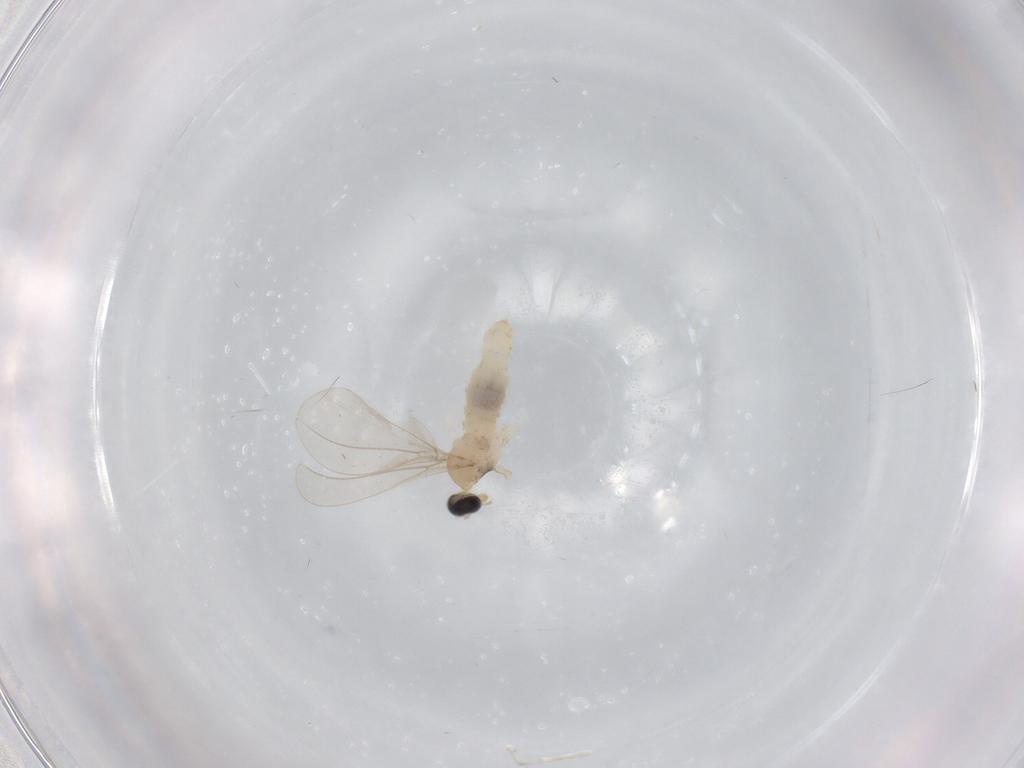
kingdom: Animalia
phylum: Arthropoda
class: Insecta
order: Diptera
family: Cecidomyiidae
